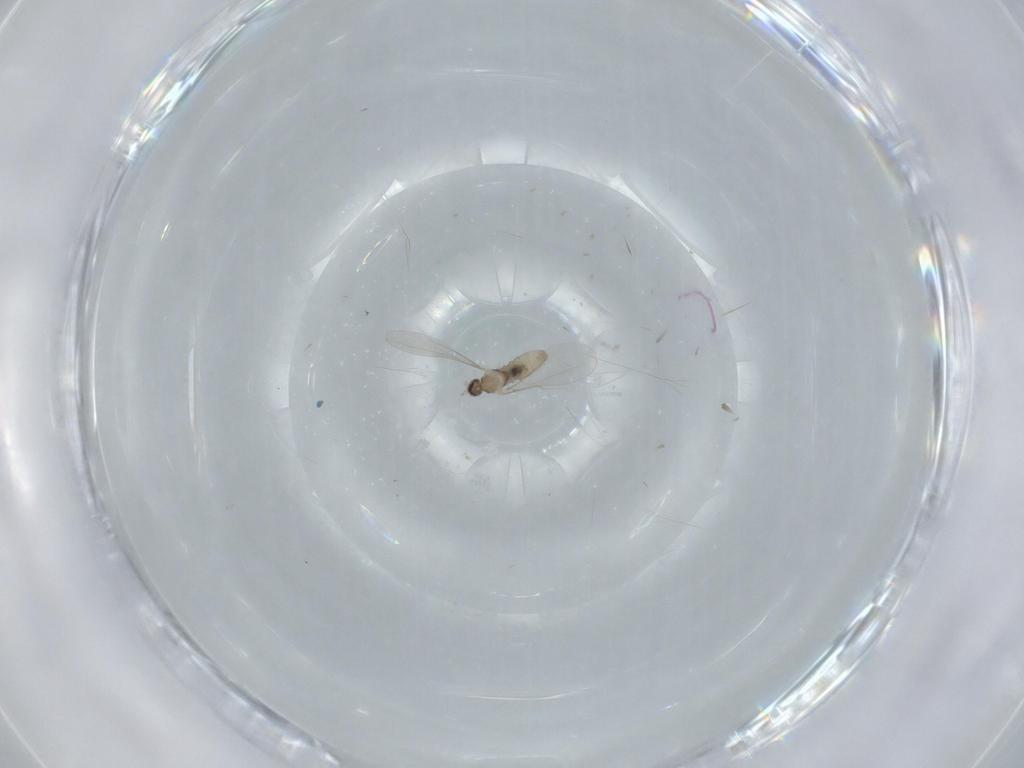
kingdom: Animalia
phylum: Arthropoda
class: Insecta
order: Diptera
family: Cecidomyiidae
